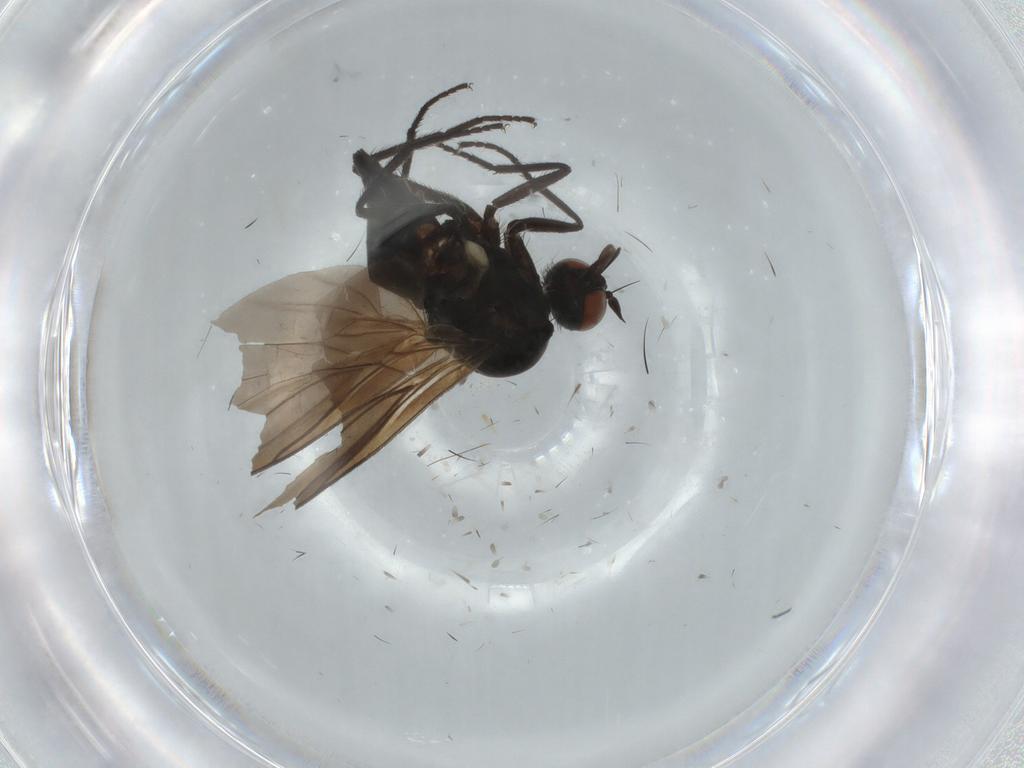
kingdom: Animalia
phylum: Arthropoda
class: Insecta
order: Diptera
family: Empididae
